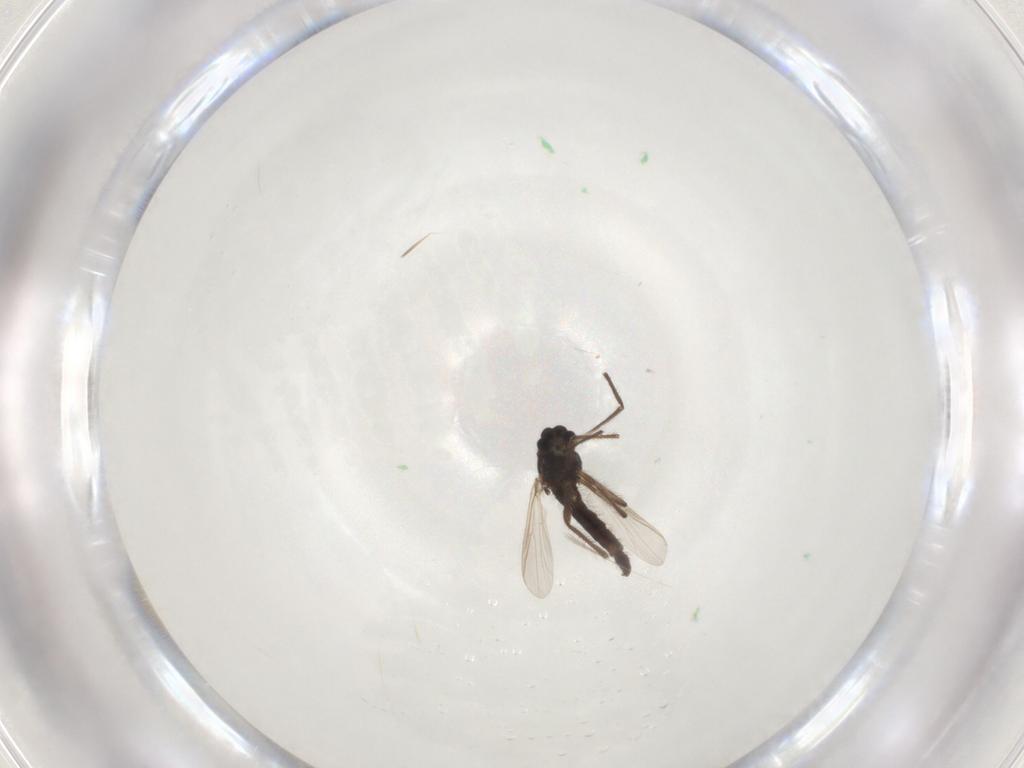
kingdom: Animalia
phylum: Arthropoda
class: Insecta
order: Diptera
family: Chironomidae
